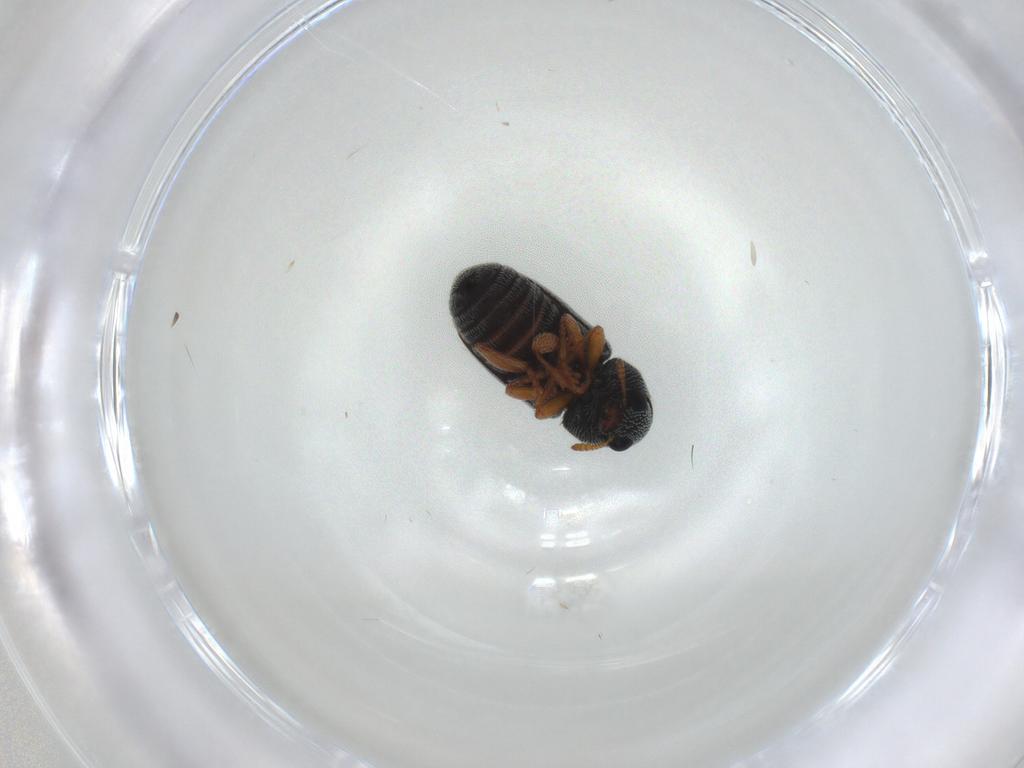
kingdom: Animalia
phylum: Arthropoda
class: Insecta
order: Coleoptera
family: Anthribidae
